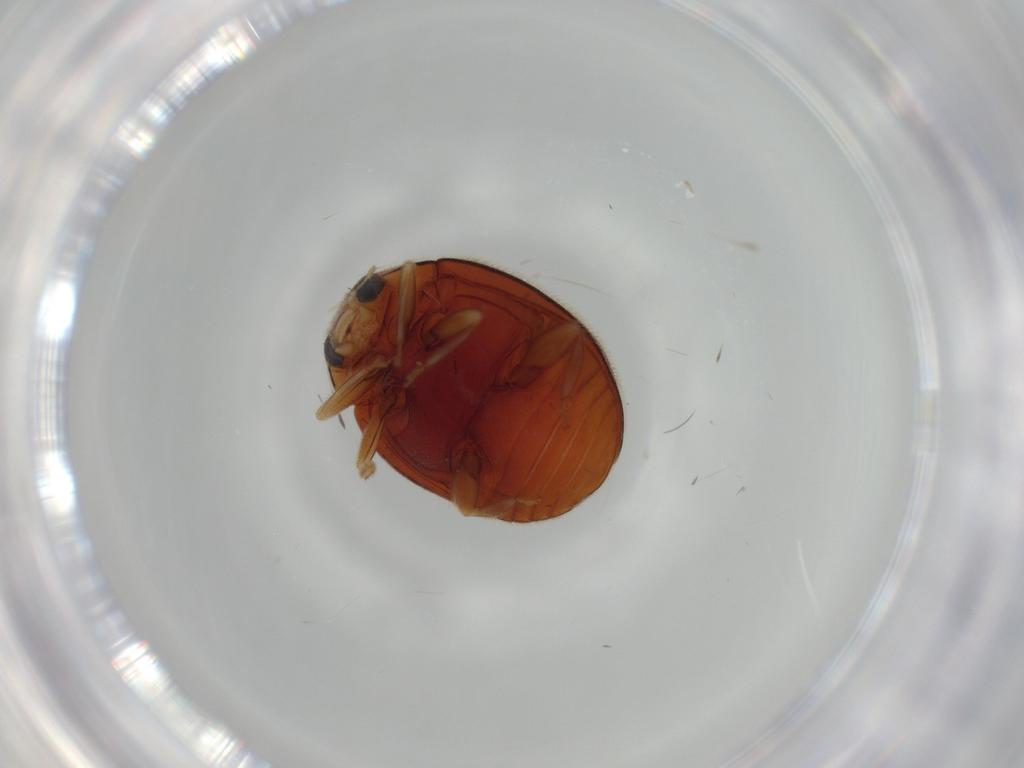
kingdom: Animalia
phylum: Arthropoda
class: Insecta
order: Coleoptera
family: Coccinellidae
